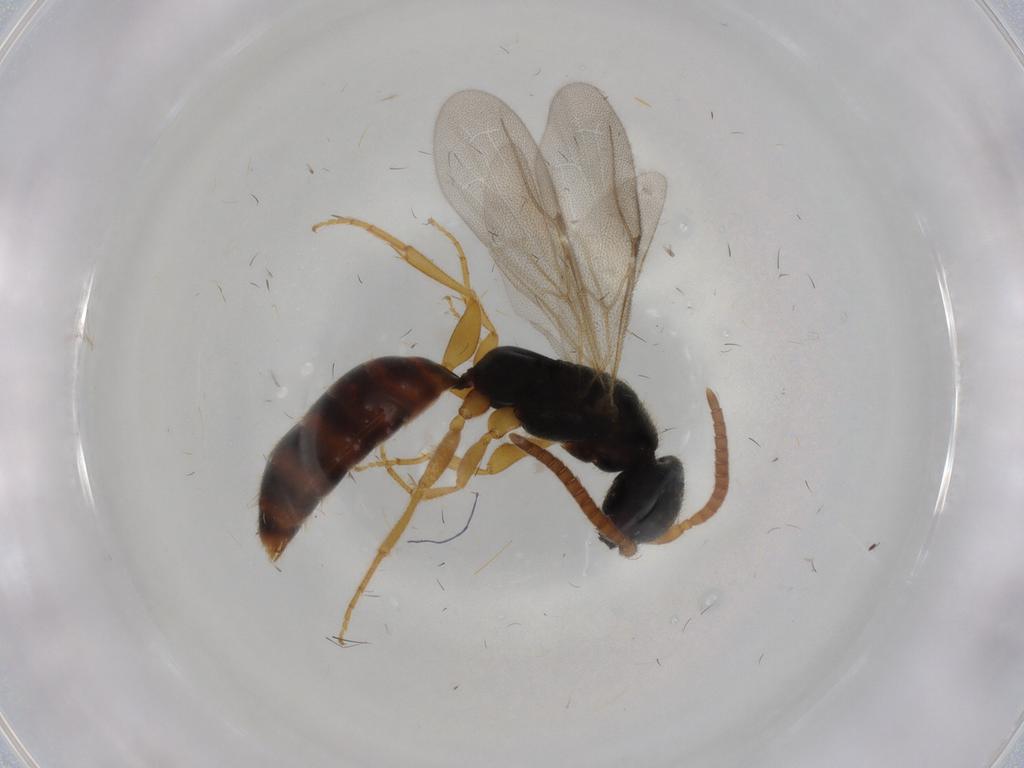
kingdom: Animalia
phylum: Arthropoda
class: Insecta
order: Hymenoptera
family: Bethylidae
